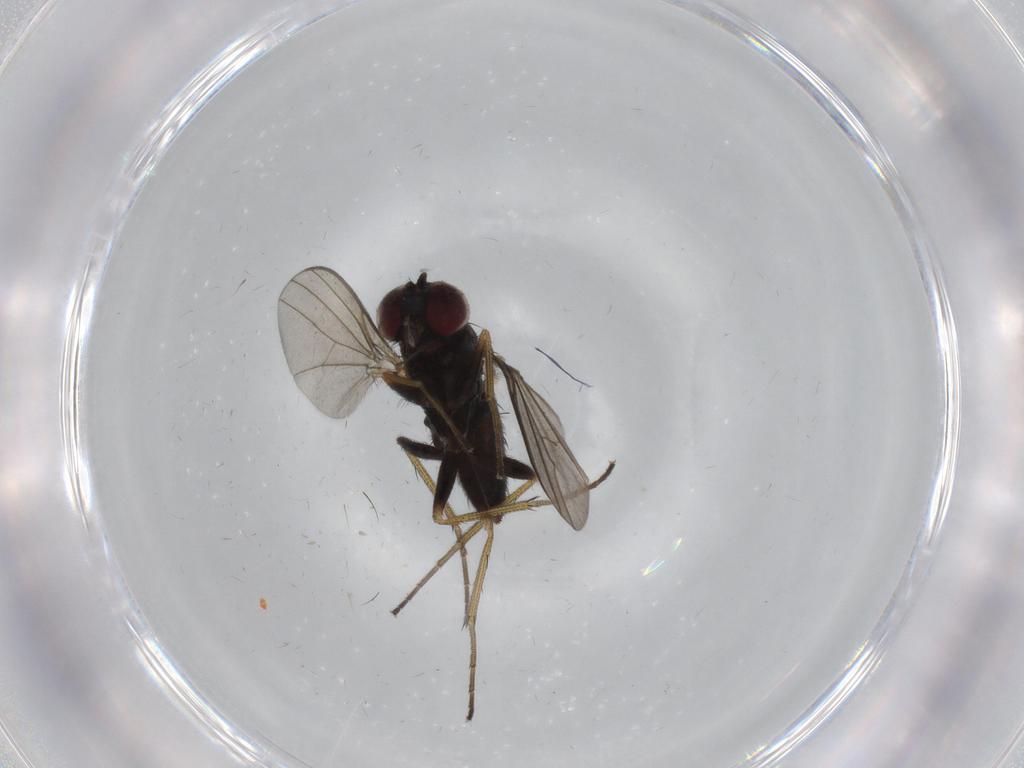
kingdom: Animalia
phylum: Arthropoda
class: Insecta
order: Diptera
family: Dolichopodidae
